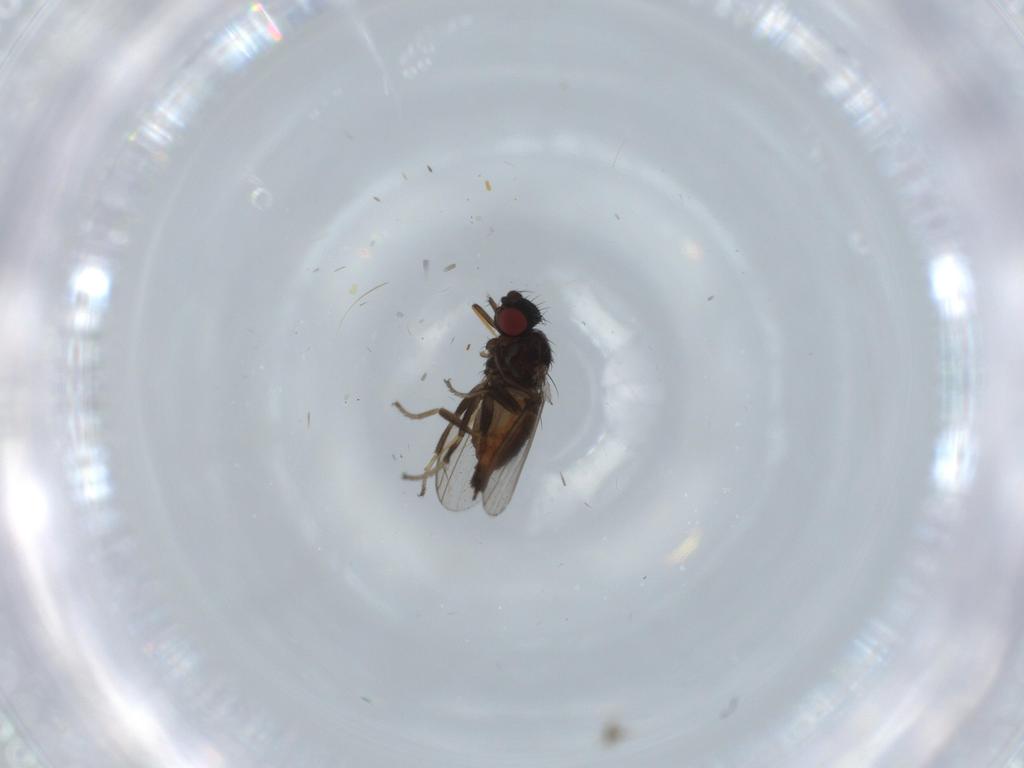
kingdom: Animalia
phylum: Arthropoda
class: Insecta
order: Diptera
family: Milichiidae
